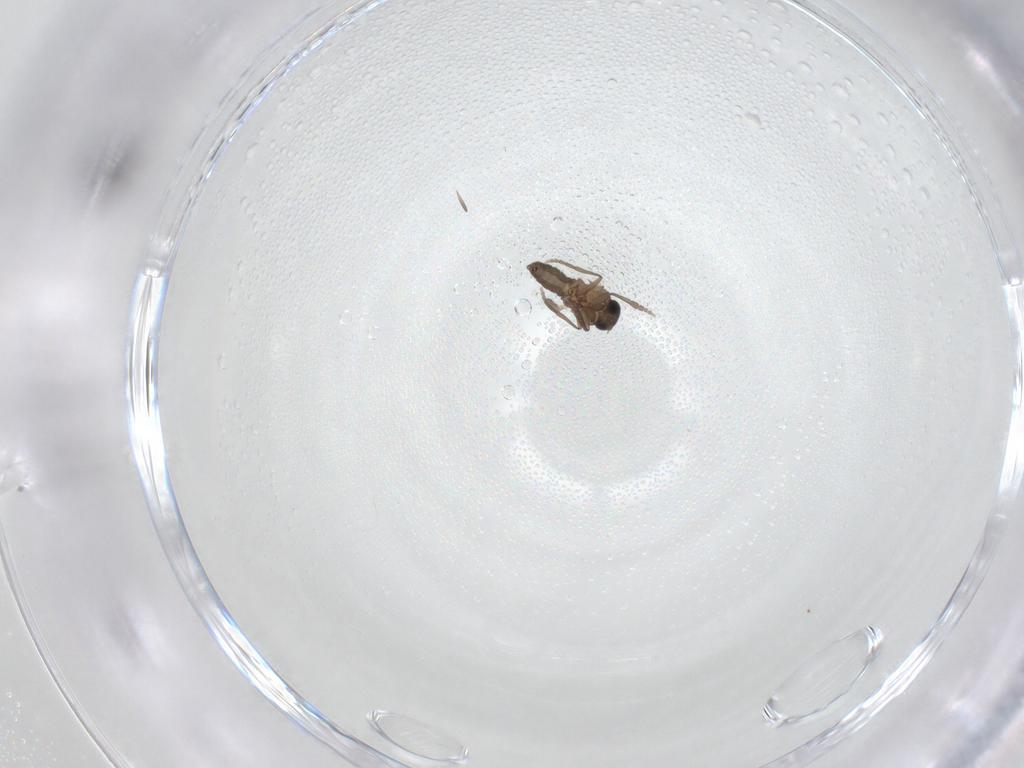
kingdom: Animalia
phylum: Arthropoda
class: Insecta
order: Diptera
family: Phoridae
